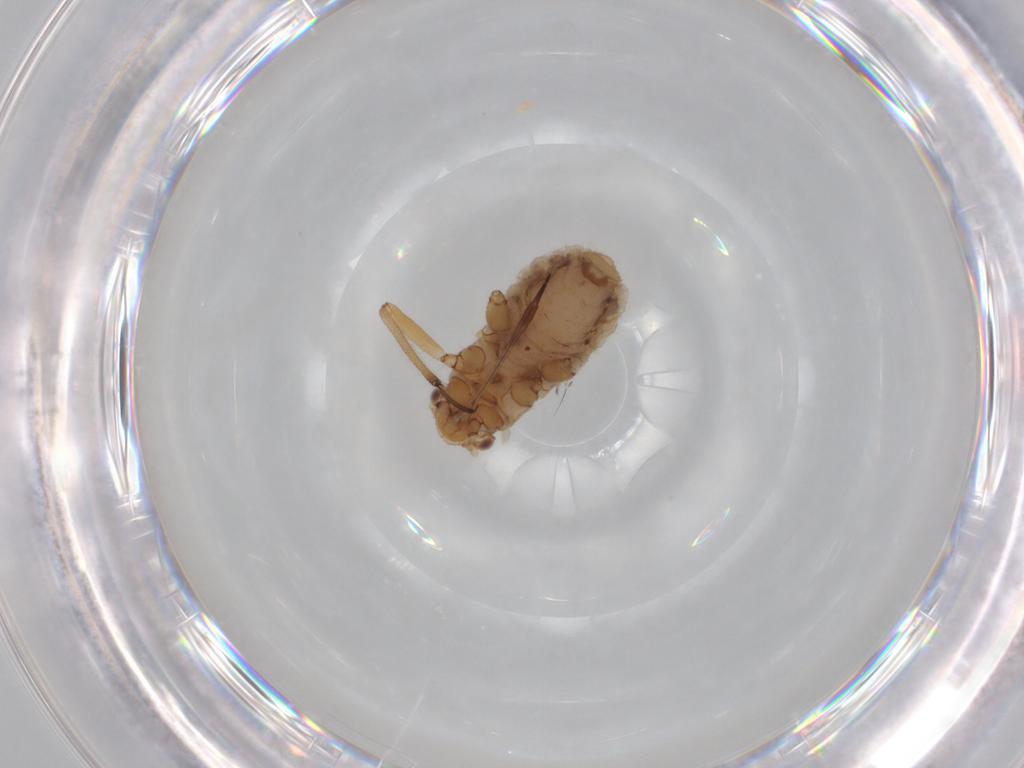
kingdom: Animalia
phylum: Arthropoda
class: Insecta
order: Hemiptera
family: Aphididae
